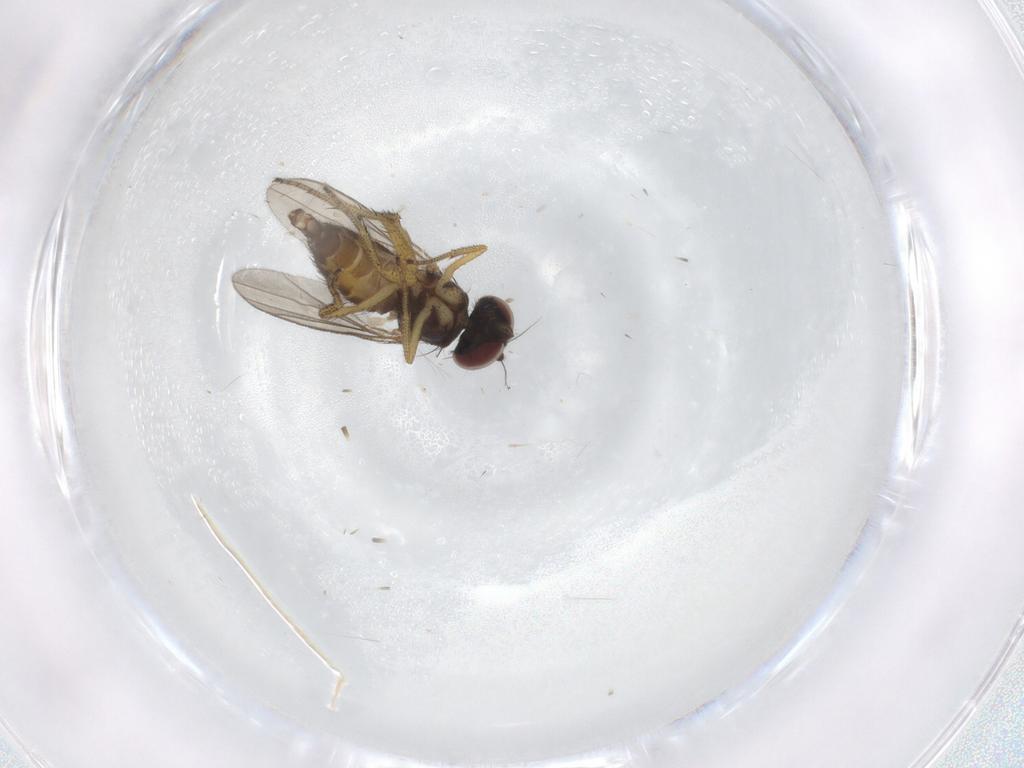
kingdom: Animalia
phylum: Arthropoda
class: Insecta
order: Diptera
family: Dolichopodidae
